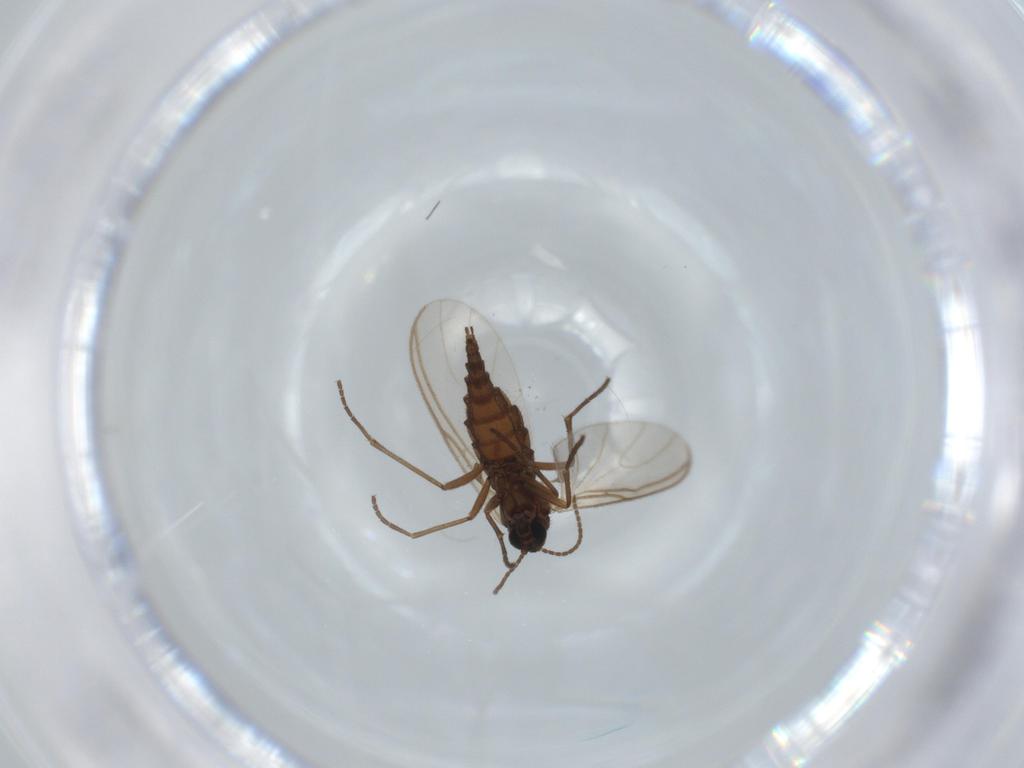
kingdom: Animalia
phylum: Arthropoda
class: Insecta
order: Diptera
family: Sciaridae
